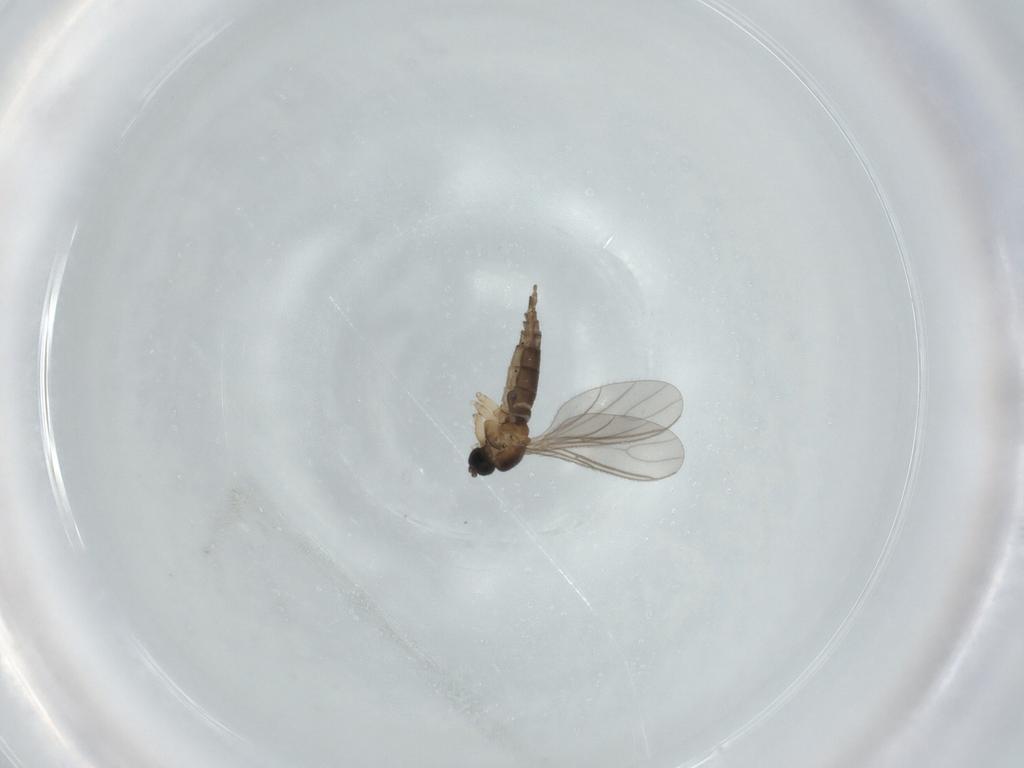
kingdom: Animalia
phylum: Arthropoda
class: Insecta
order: Diptera
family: Sciaridae
